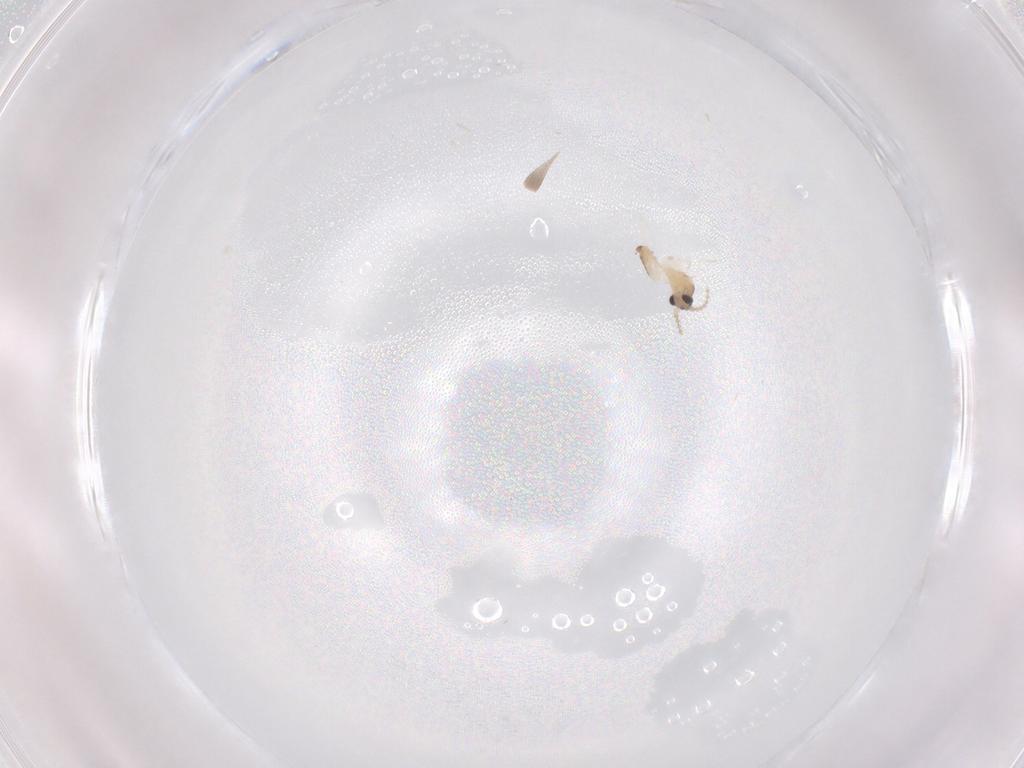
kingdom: Animalia
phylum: Arthropoda
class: Insecta
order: Diptera
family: Cecidomyiidae
